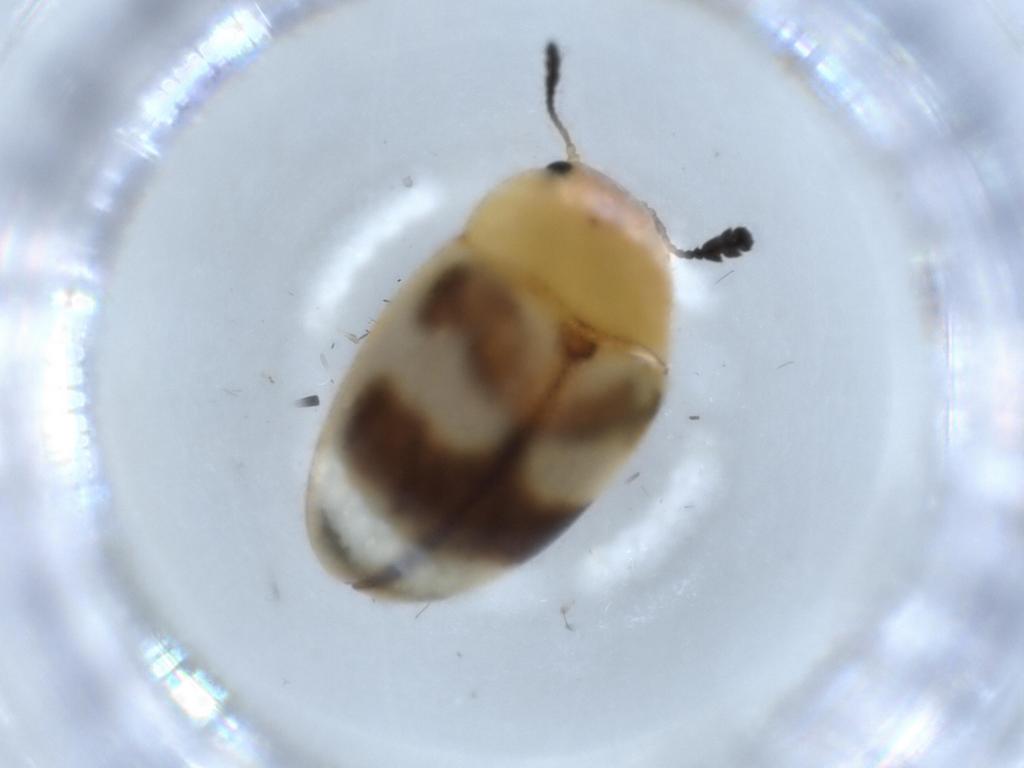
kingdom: Animalia
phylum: Arthropoda
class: Insecta
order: Coleoptera
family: Erotylidae
